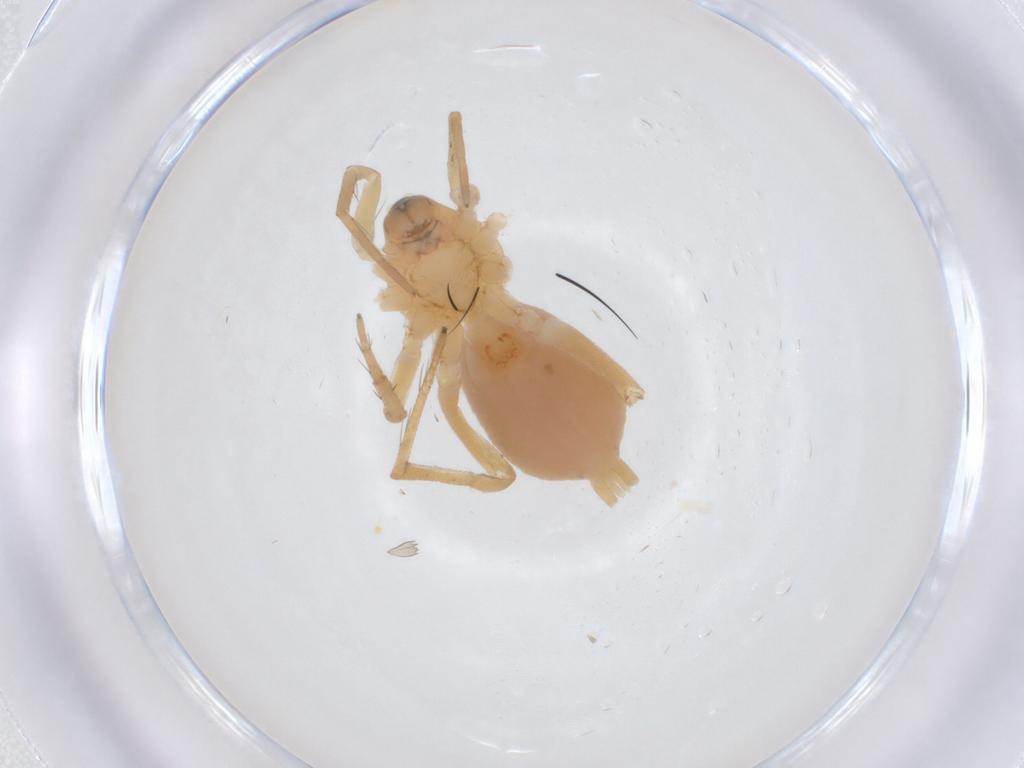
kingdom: Animalia
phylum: Arthropoda
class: Arachnida
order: Araneae
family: Gnaphosidae
